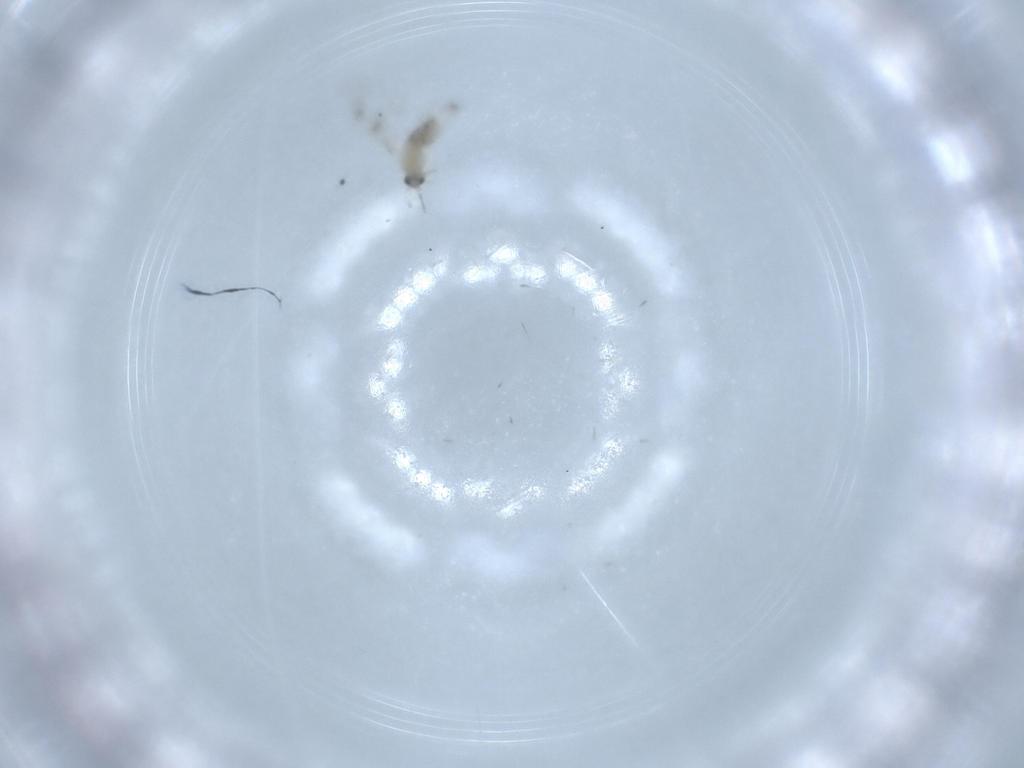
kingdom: Animalia
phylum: Arthropoda
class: Insecta
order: Diptera
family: Cecidomyiidae
